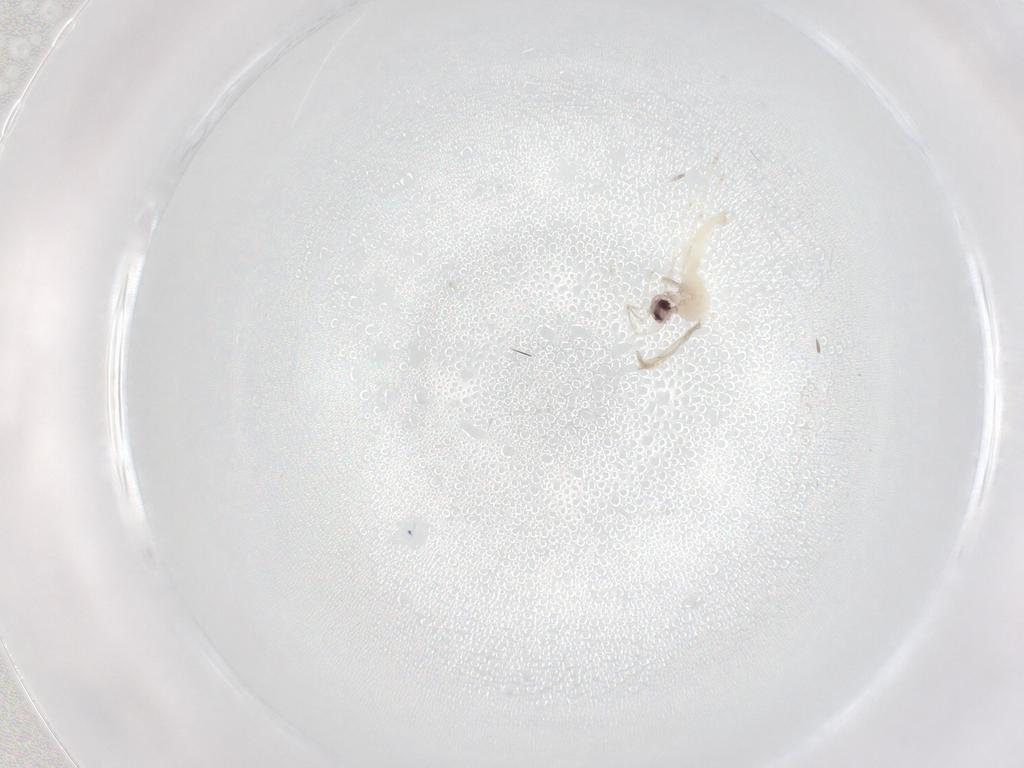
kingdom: Animalia
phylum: Arthropoda
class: Insecta
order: Diptera
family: Cecidomyiidae
